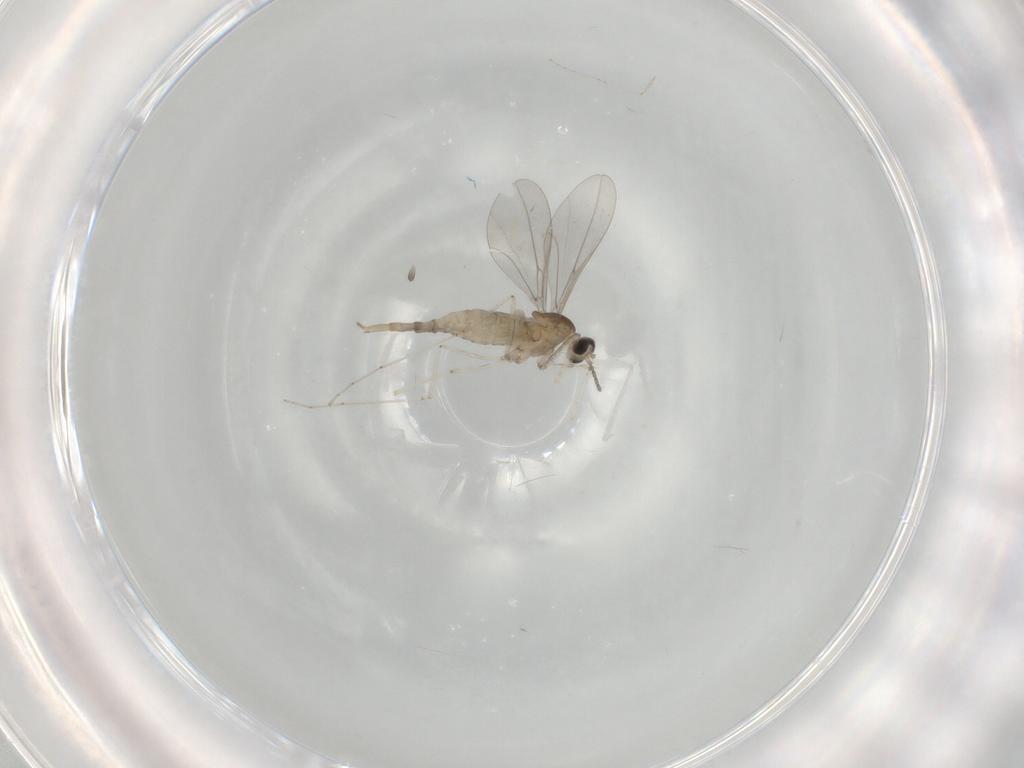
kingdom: Animalia
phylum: Arthropoda
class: Insecta
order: Diptera
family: Cecidomyiidae
